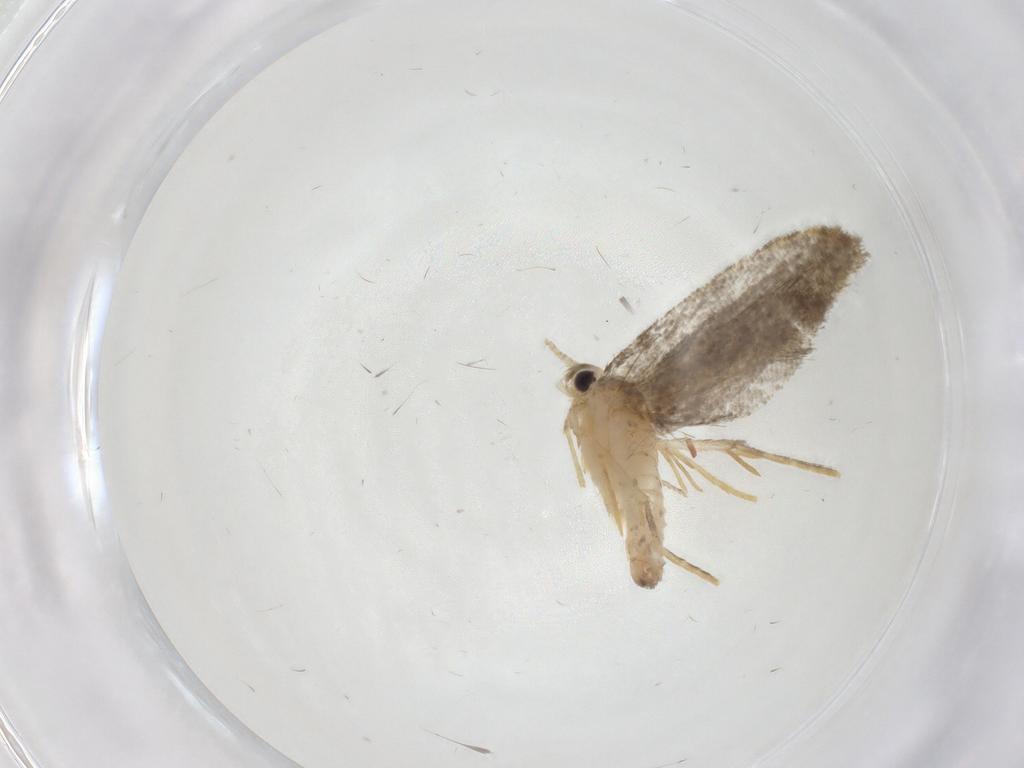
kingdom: Animalia
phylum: Arthropoda
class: Insecta
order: Lepidoptera
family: Psychidae
